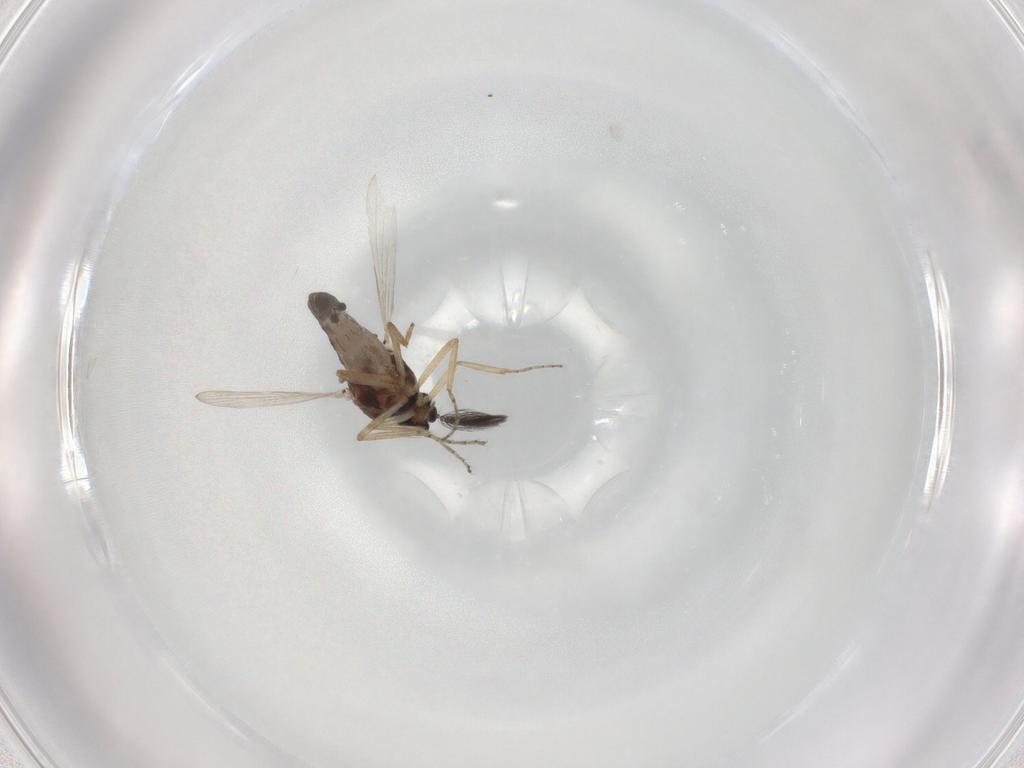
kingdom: Animalia
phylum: Arthropoda
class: Insecta
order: Diptera
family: Ceratopogonidae
